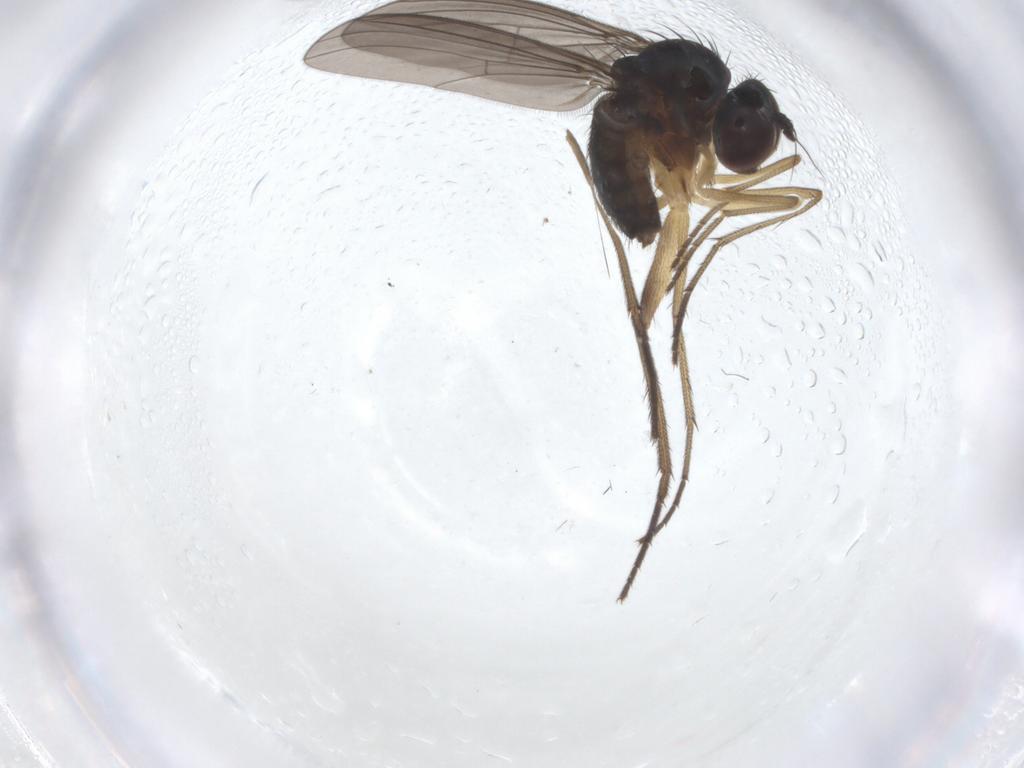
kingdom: Animalia
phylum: Arthropoda
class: Insecta
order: Diptera
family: Dolichopodidae
